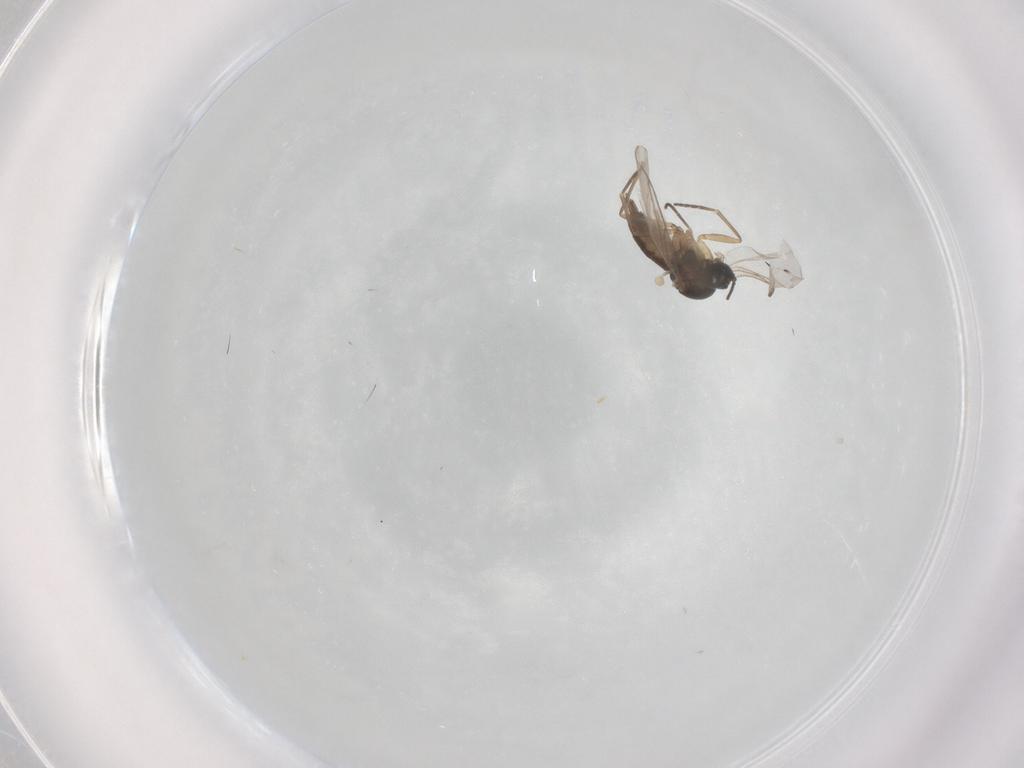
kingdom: Animalia
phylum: Arthropoda
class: Insecta
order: Diptera
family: Sciaridae
